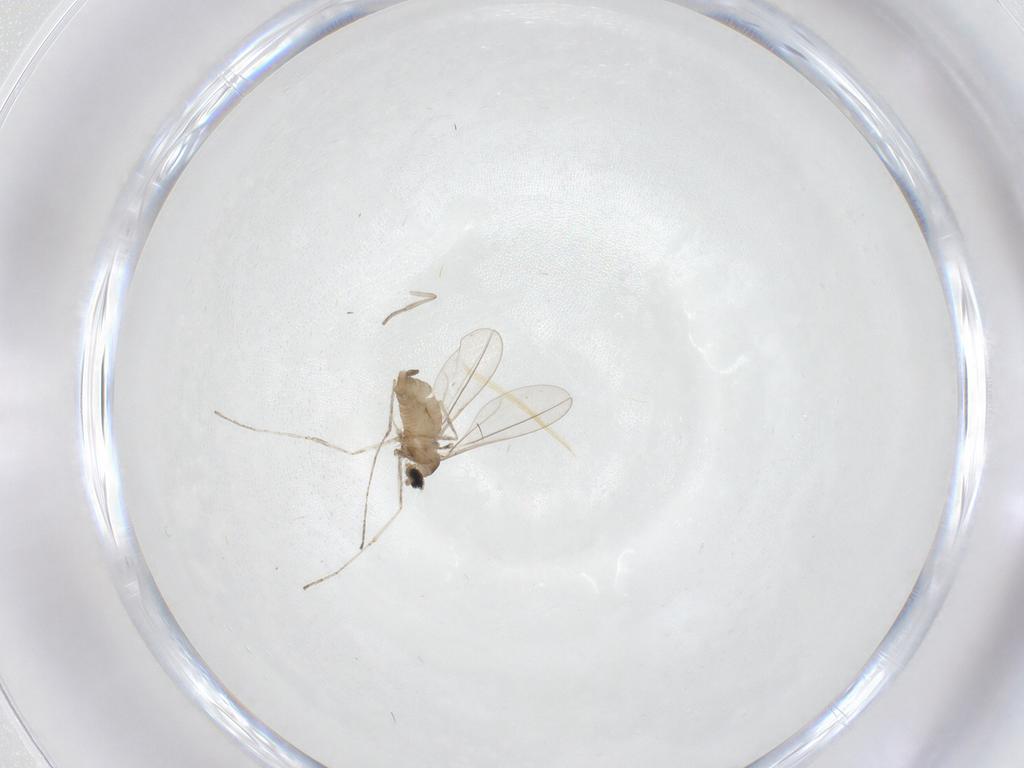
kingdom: Animalia
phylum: Arthropoda
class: Insecta
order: Diptera
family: Cecidomyiidae
